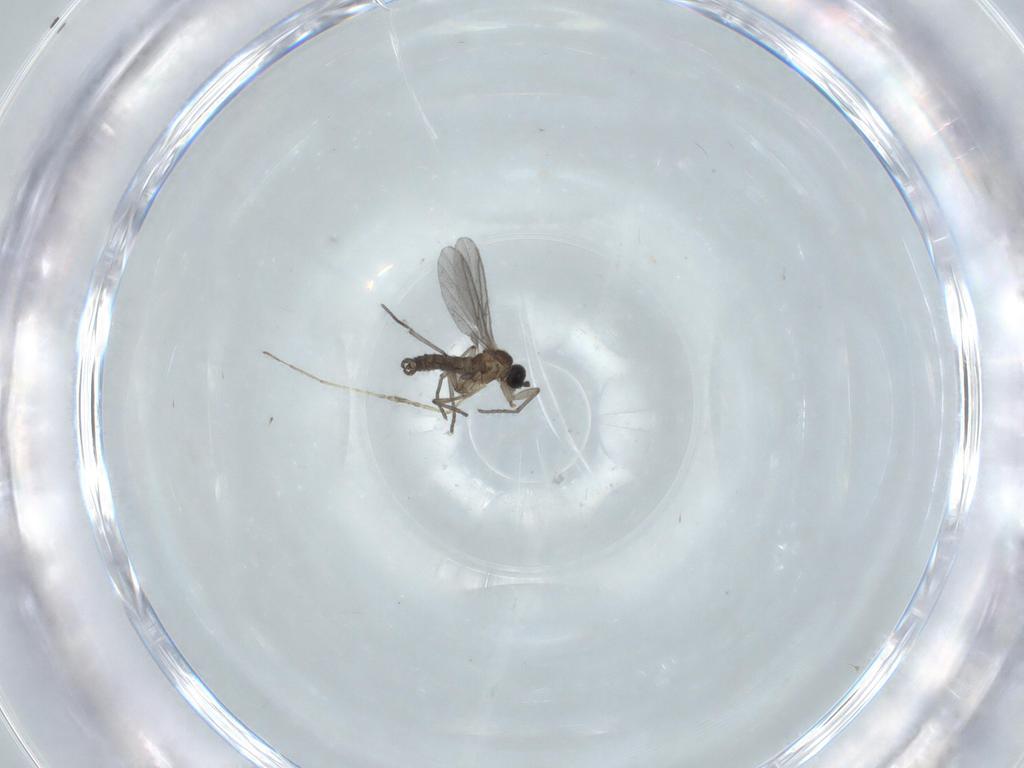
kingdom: Animalia
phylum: Arthropoda
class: Insecta
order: Diptera
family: Cecidomyiidae
